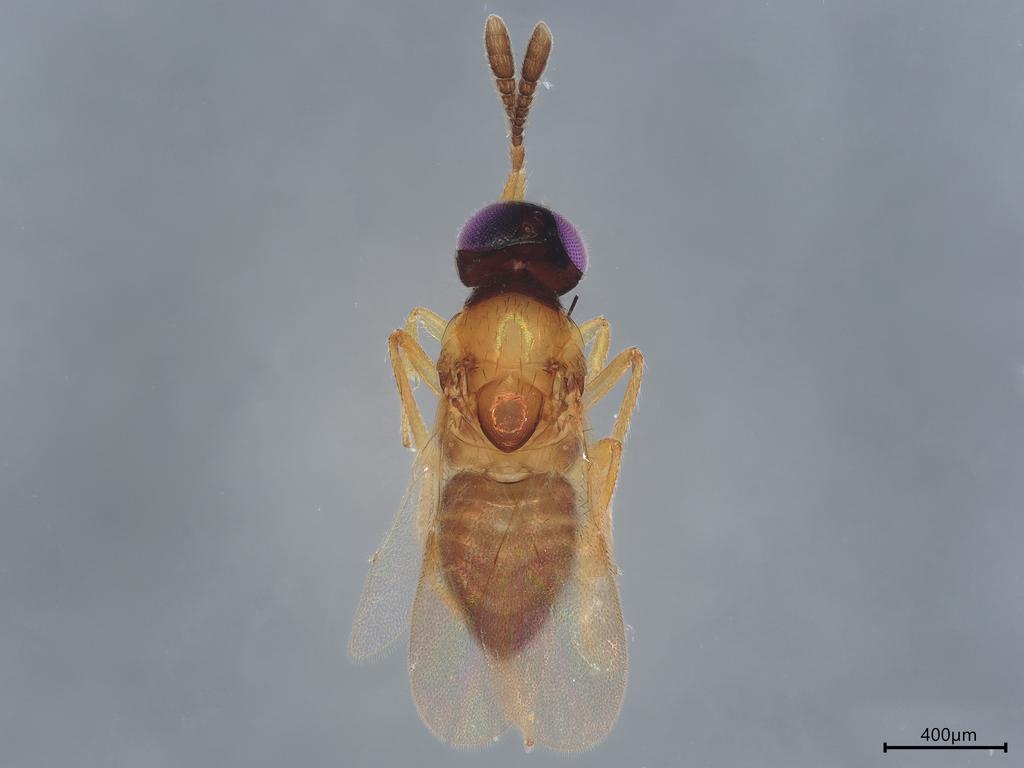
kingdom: Animalia
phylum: Arthropoda
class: Insecta
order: Hymenoptera
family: Encyrtidae
